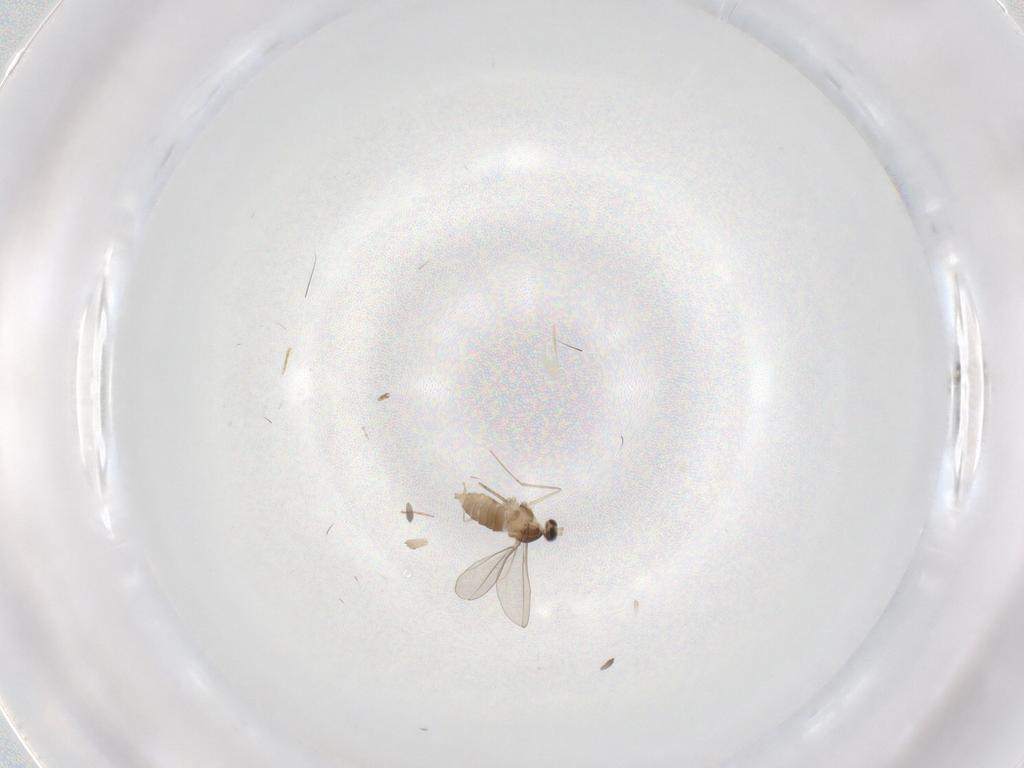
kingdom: Animalia
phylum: Arthropoda
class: Insecta
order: Diptera
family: Cecidomyiidae
